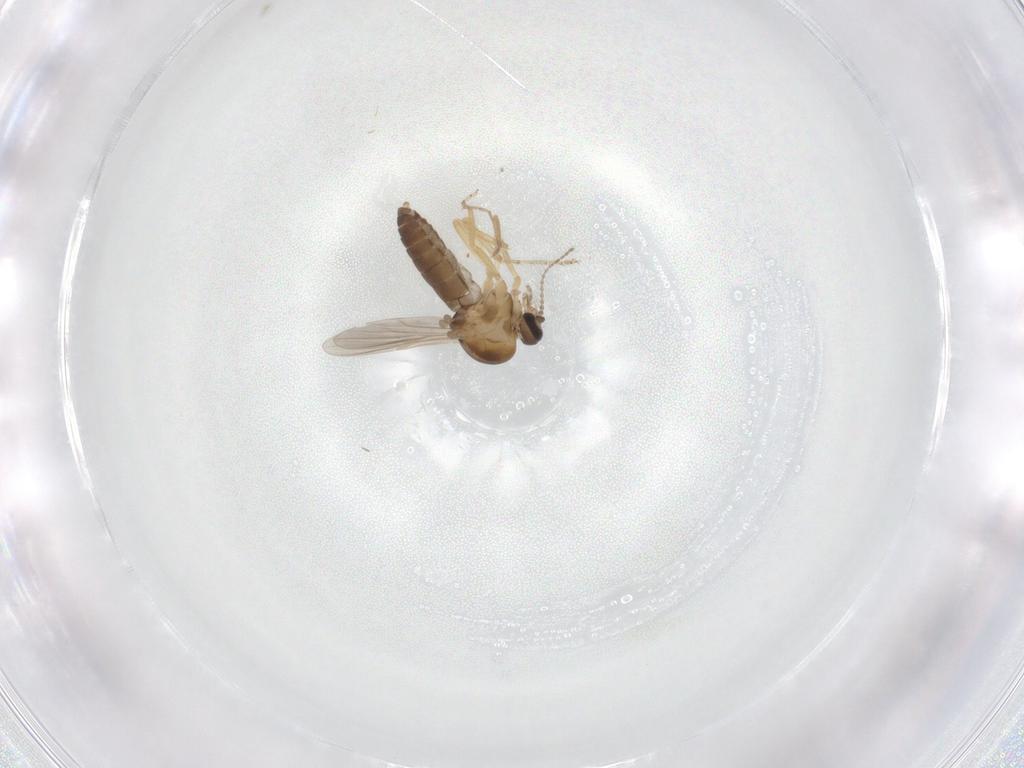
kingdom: Animalia
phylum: Arthropoda
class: Insecta
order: Diptera
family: Ceratopogonidae
